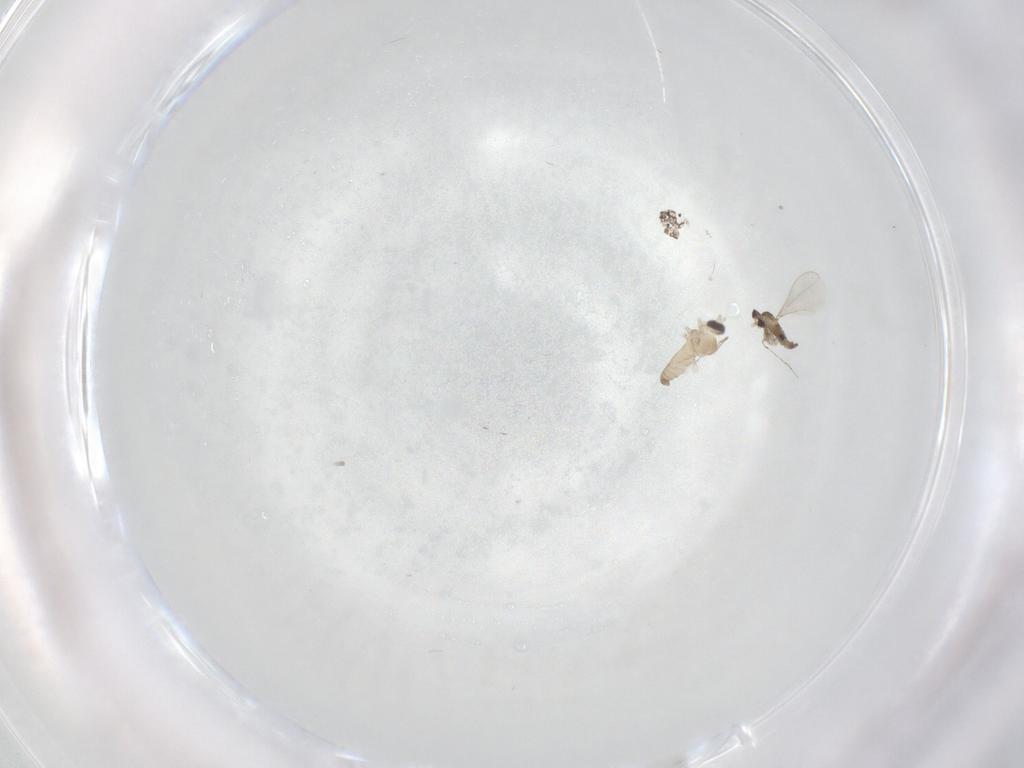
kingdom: Animalia
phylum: Arthropoda
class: Insecta
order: Diptera
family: Cecidomyiidae
